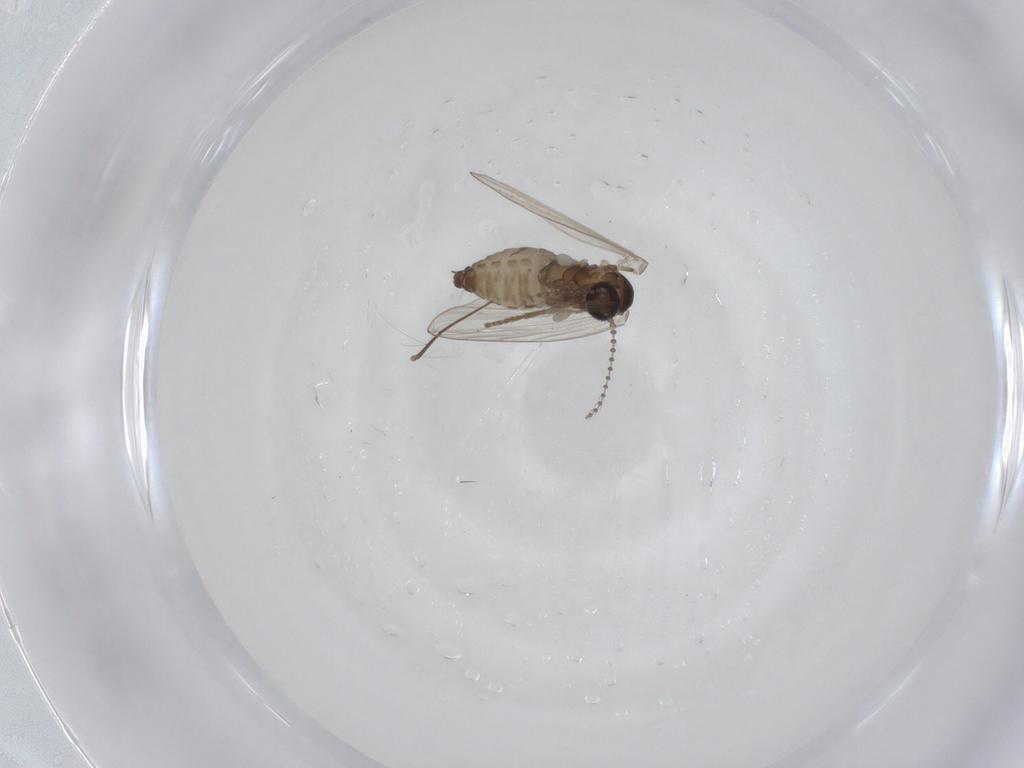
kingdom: Animalia
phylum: Arthropoda
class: Insecta
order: Diptera
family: Psychodidae
